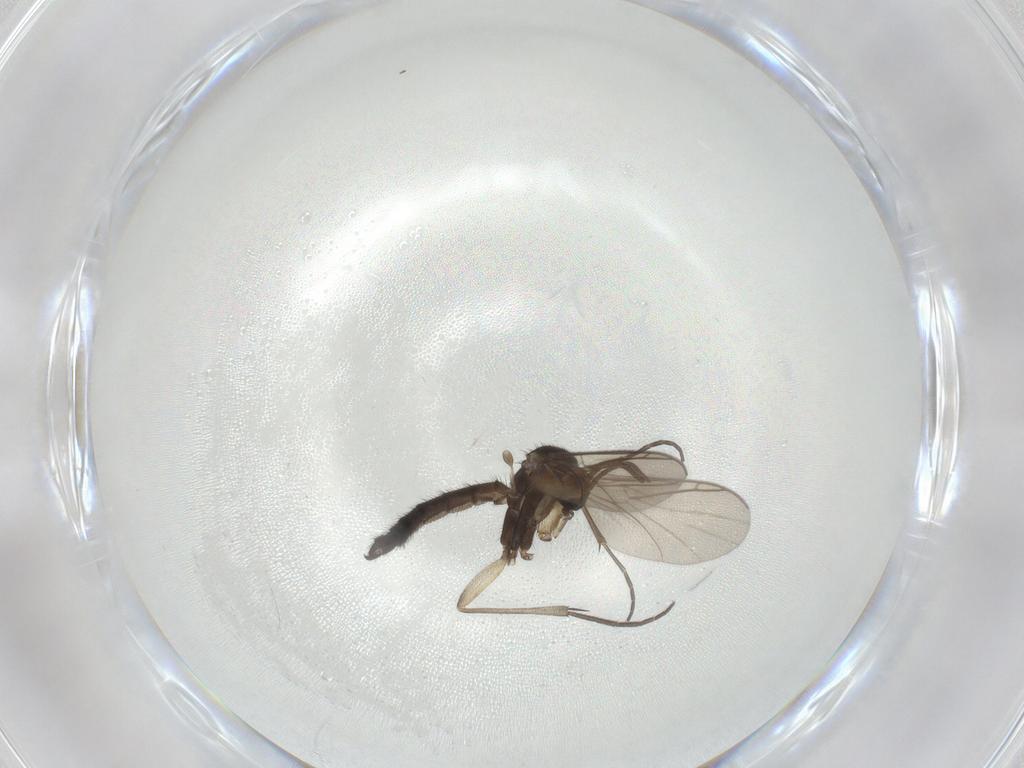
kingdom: Animalia
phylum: Arthropoda
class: Insecta
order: Diptera
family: Keroplatidae
